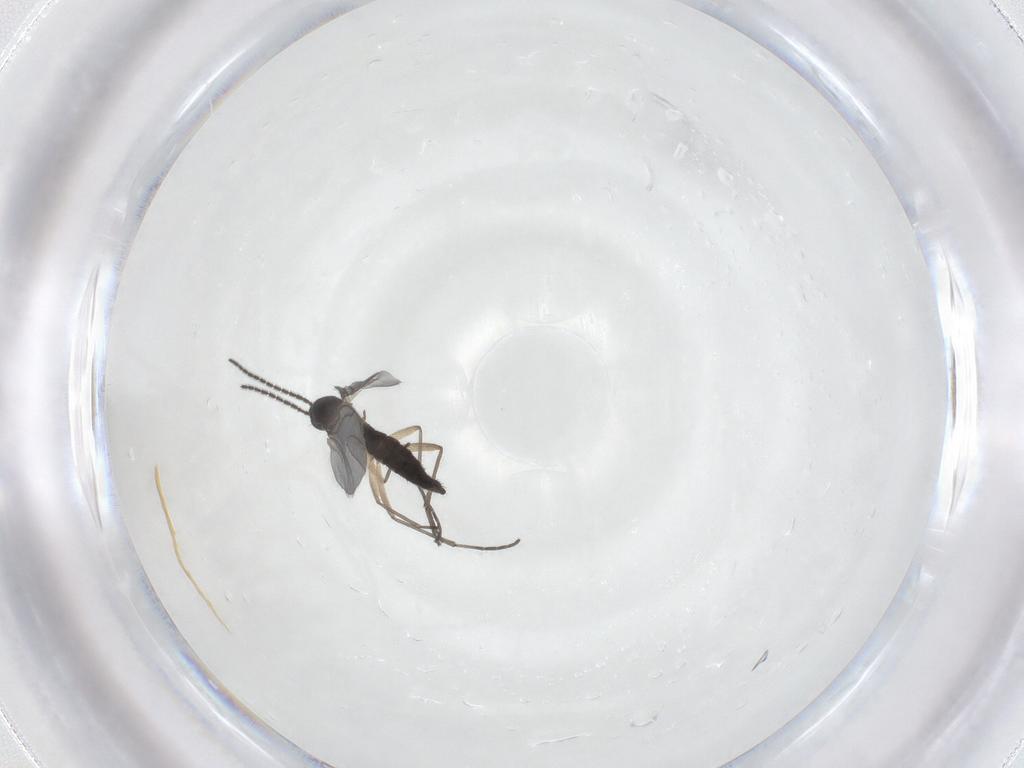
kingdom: Animalia
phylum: Arthropoda
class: Insecta
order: Diptera
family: Sciaridae
